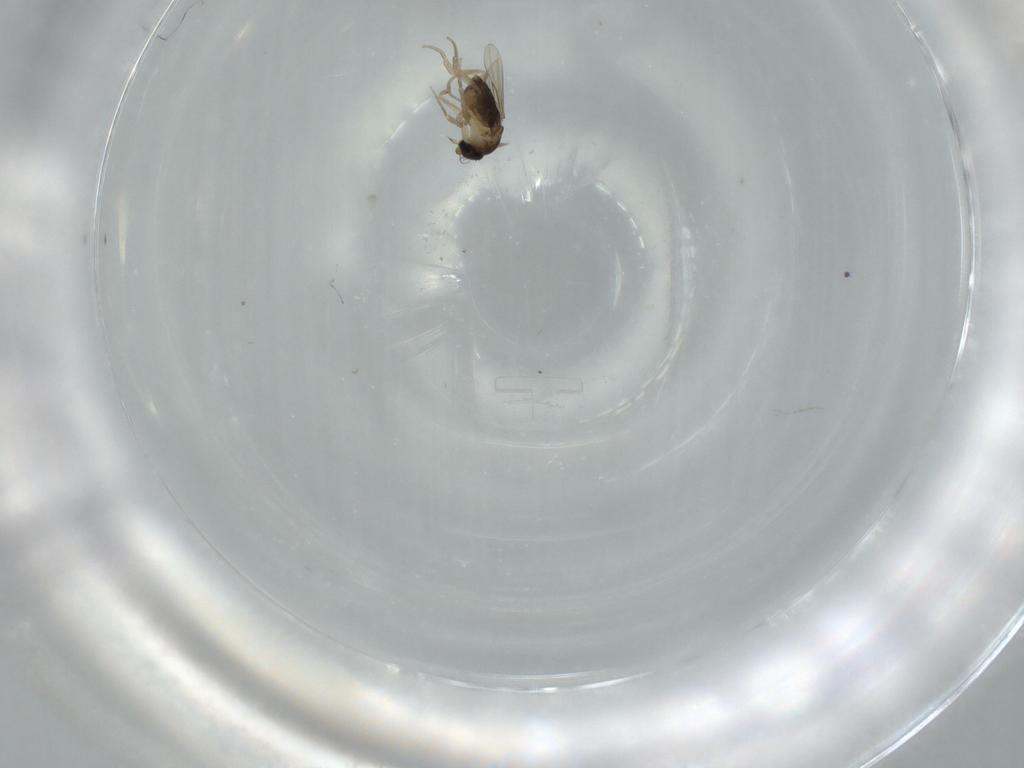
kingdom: Animalia
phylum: Arthropoda
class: Insecta
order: Diptera
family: Phoridae
